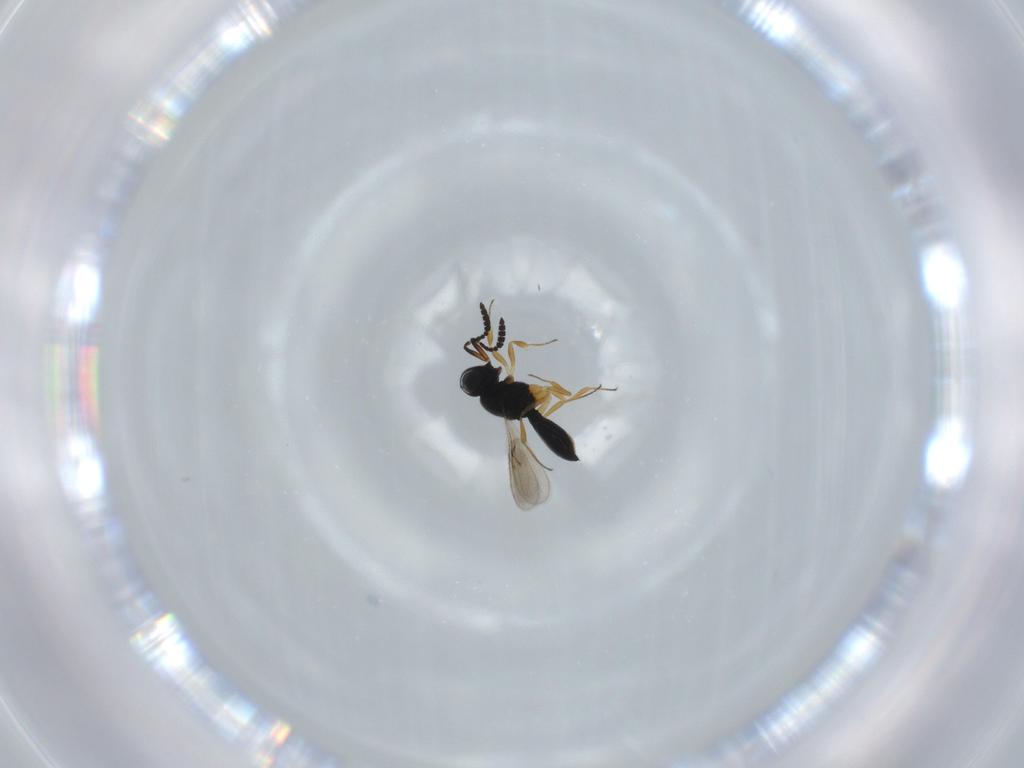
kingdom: Animalia
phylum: Arthropoda
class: Insecta
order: Hymenoptera
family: Scelionidae
